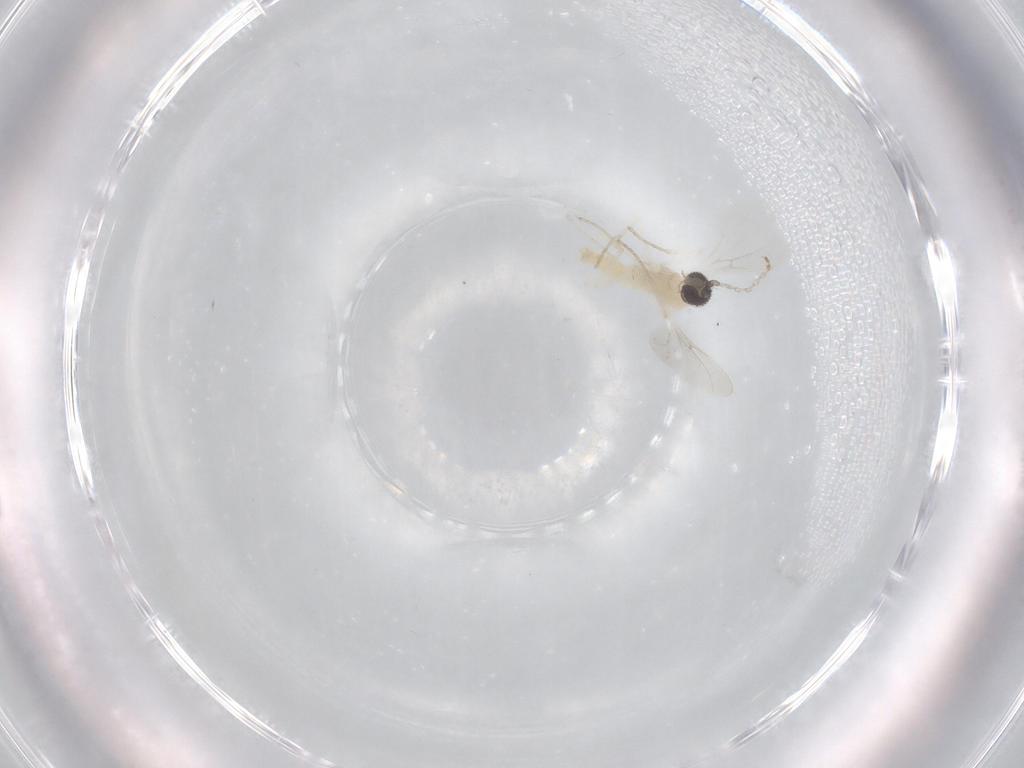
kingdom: Animalia
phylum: Arthropoda
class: Insecta
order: Diptera
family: Cecidomyiidae
